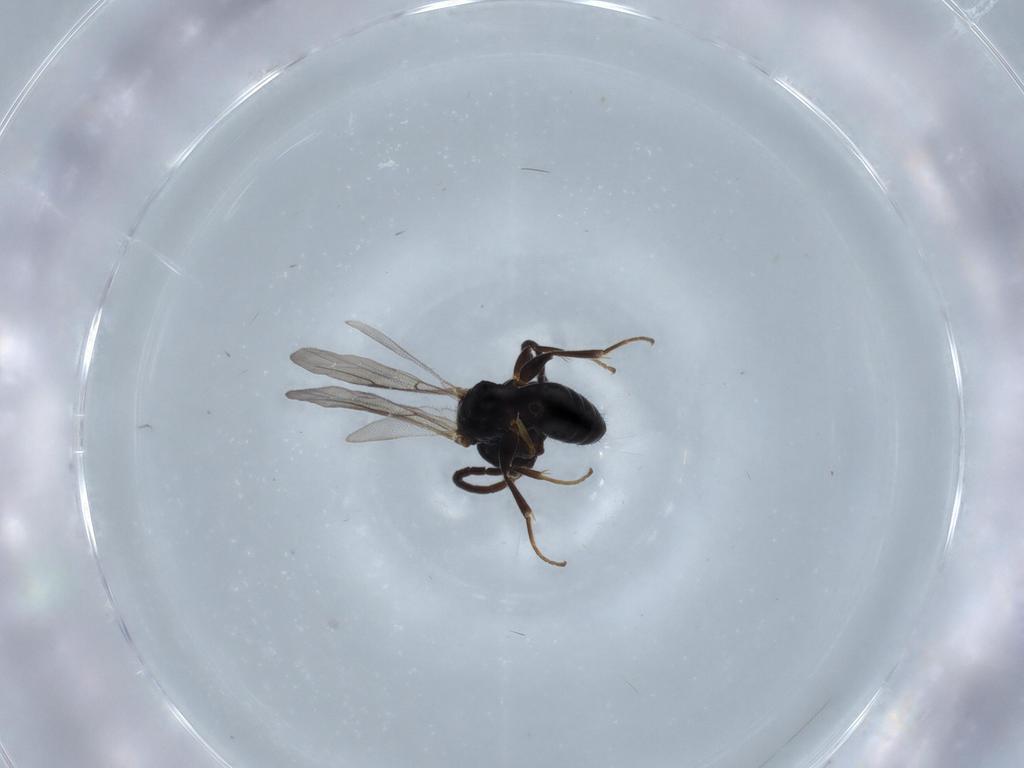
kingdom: Animalia
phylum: Arthropoda
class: Insecta
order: Hymenoptera
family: Bethylidae
